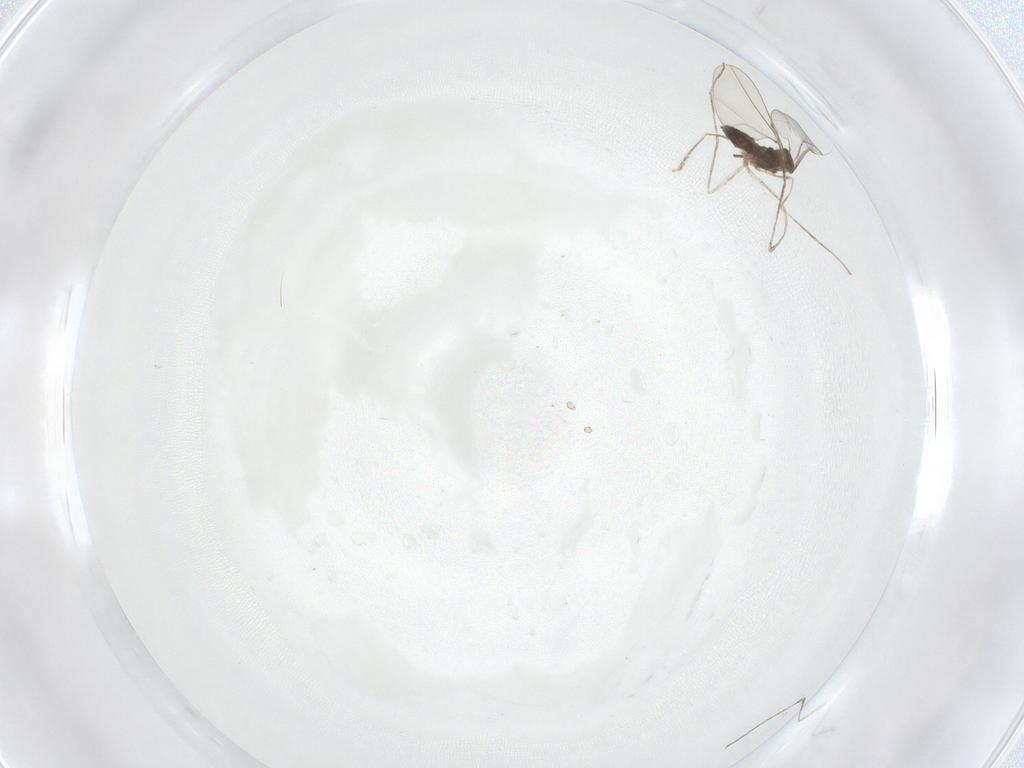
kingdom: Animalia
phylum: Arthropoda
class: Insecta
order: Diptera
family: Cecidomyiidae
